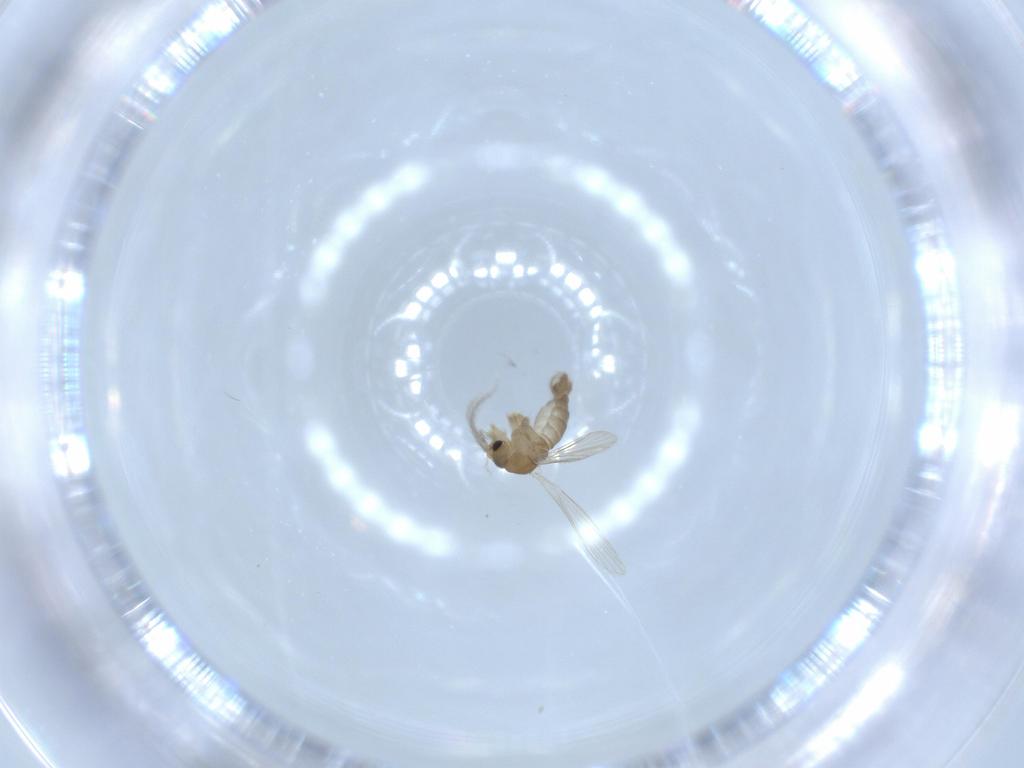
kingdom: Animalia
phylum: Arthropoda
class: Insecta
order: Diptera
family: Cecidomyiidae
